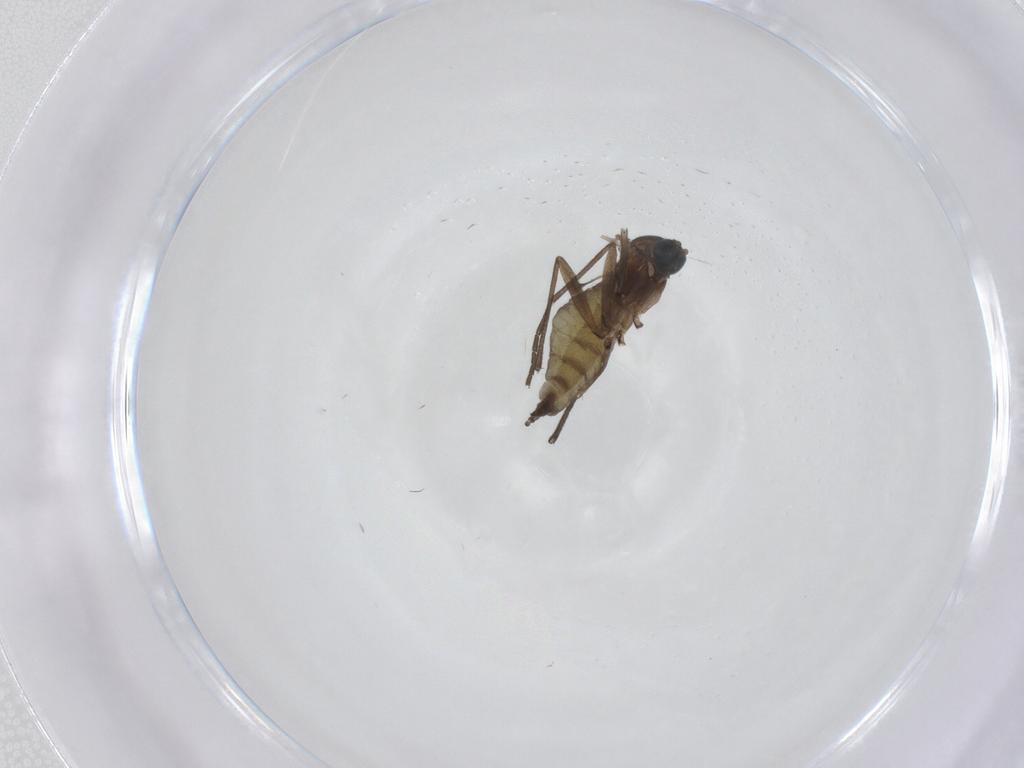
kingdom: Animalia
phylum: Arthropoda
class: Insecta
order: Diptera
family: Sciaridae
